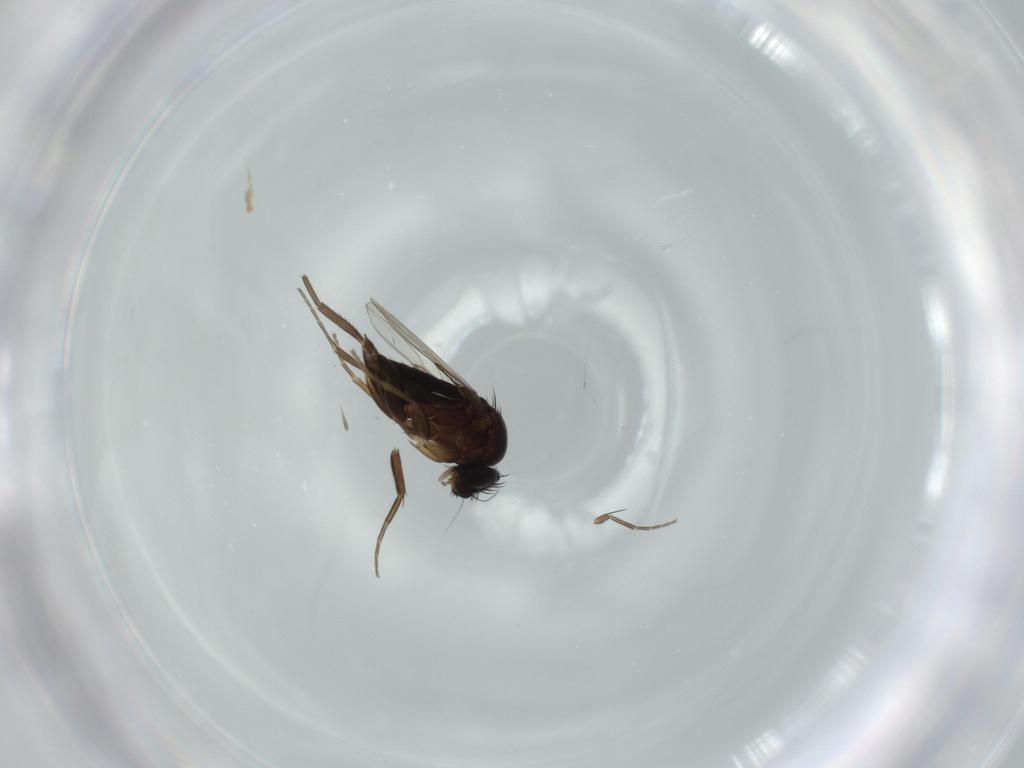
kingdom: Animalia
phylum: Arthropoda
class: Insecta
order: Diptera
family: Phoridae
